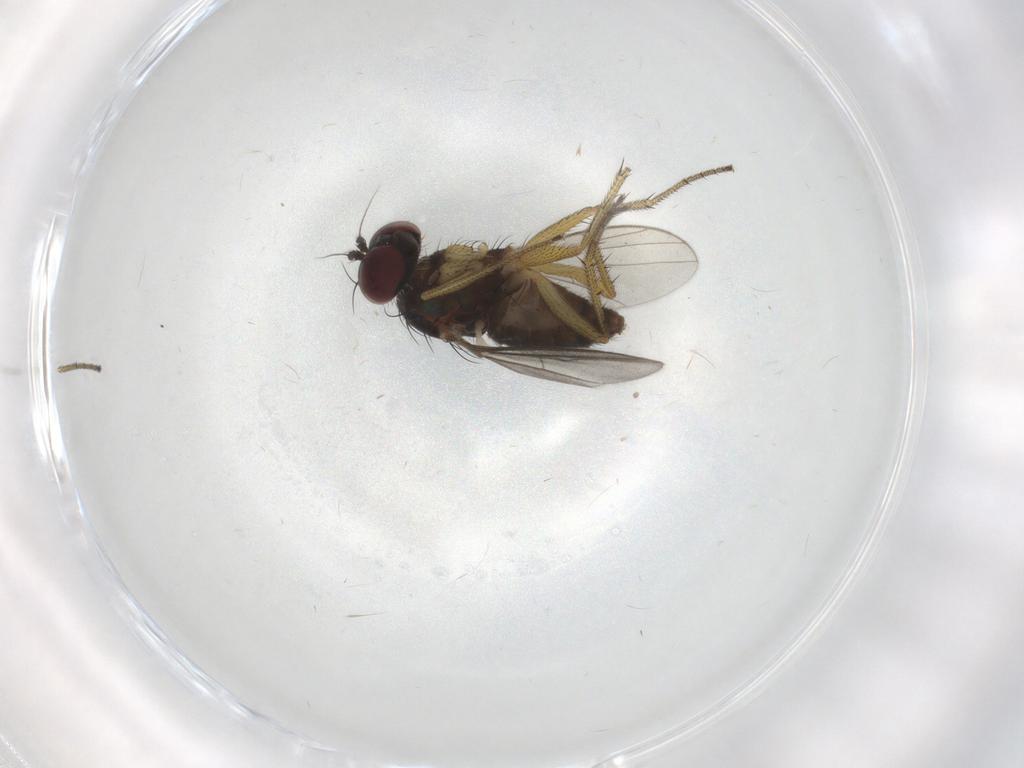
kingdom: Animalia
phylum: Arthropoda
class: Insecta
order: Diptera
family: Dolichopodidae
